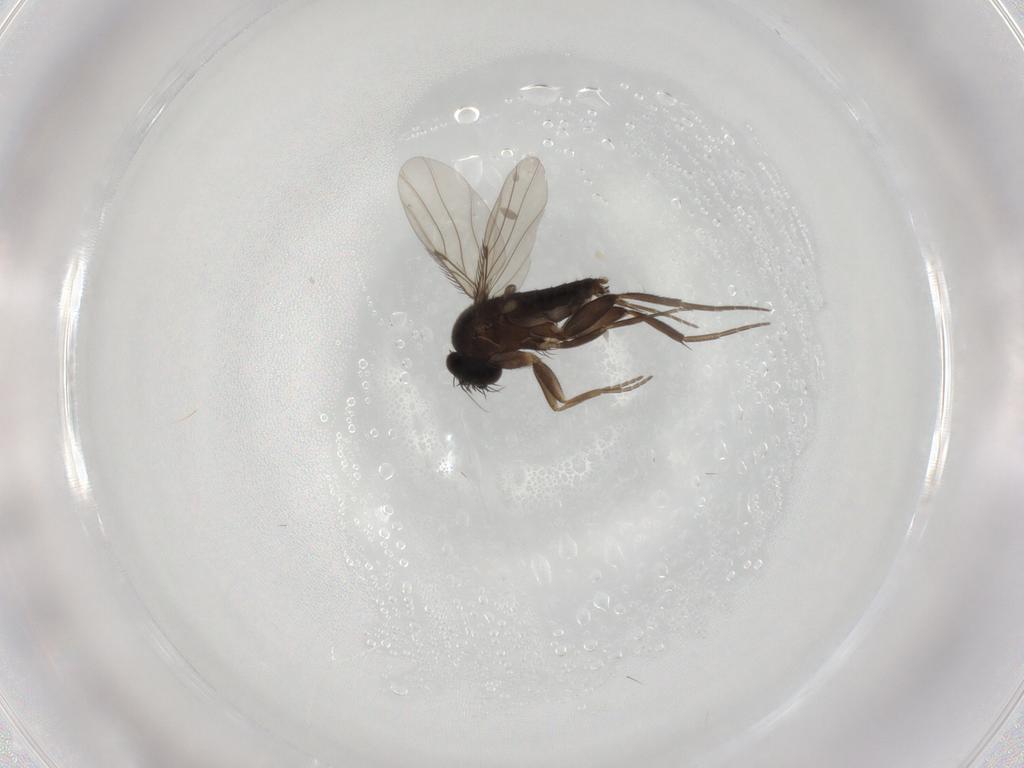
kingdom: Animalia
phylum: Arthropoda
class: Insecta
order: Diptera
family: Phoridae
